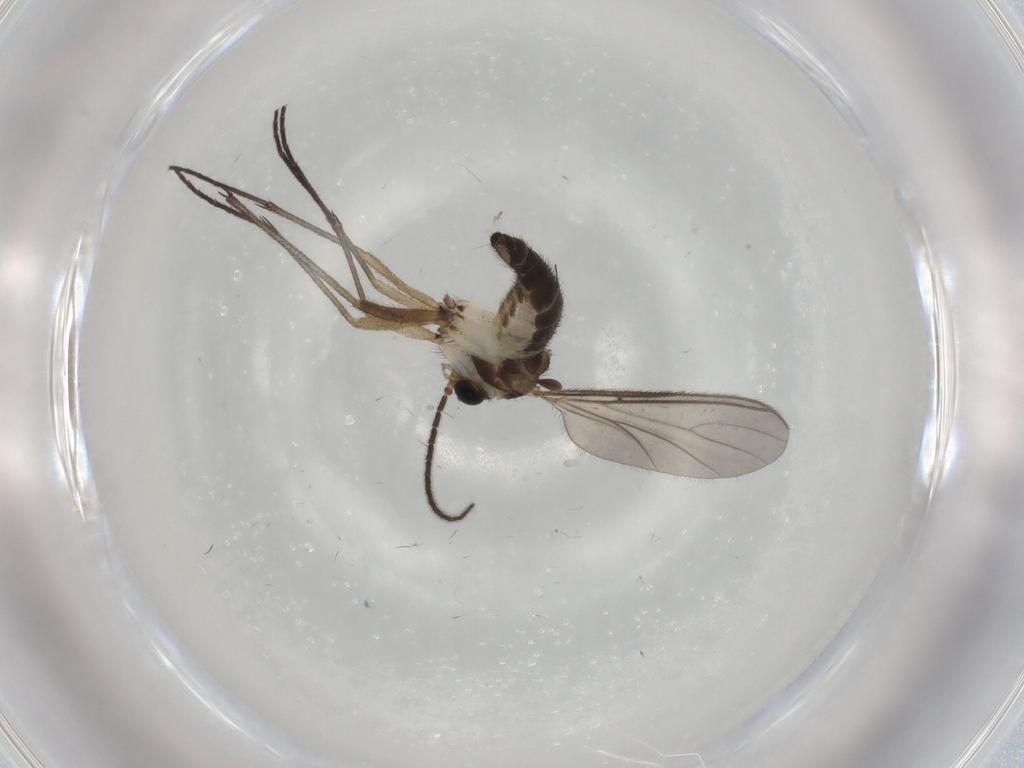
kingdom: Animalia
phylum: Arthropoda
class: Insecta
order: Diptera
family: Sciaridae
